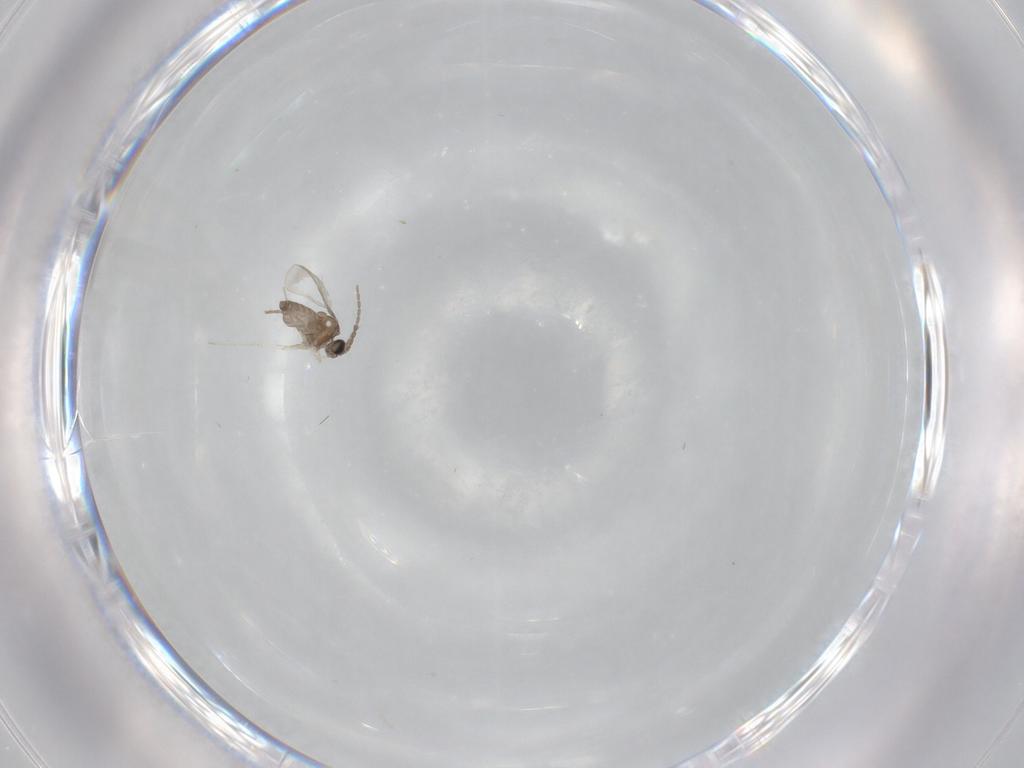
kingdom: Animalia
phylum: Arthropoda
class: Insecta
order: Diptera
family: Cecidomyiidae
